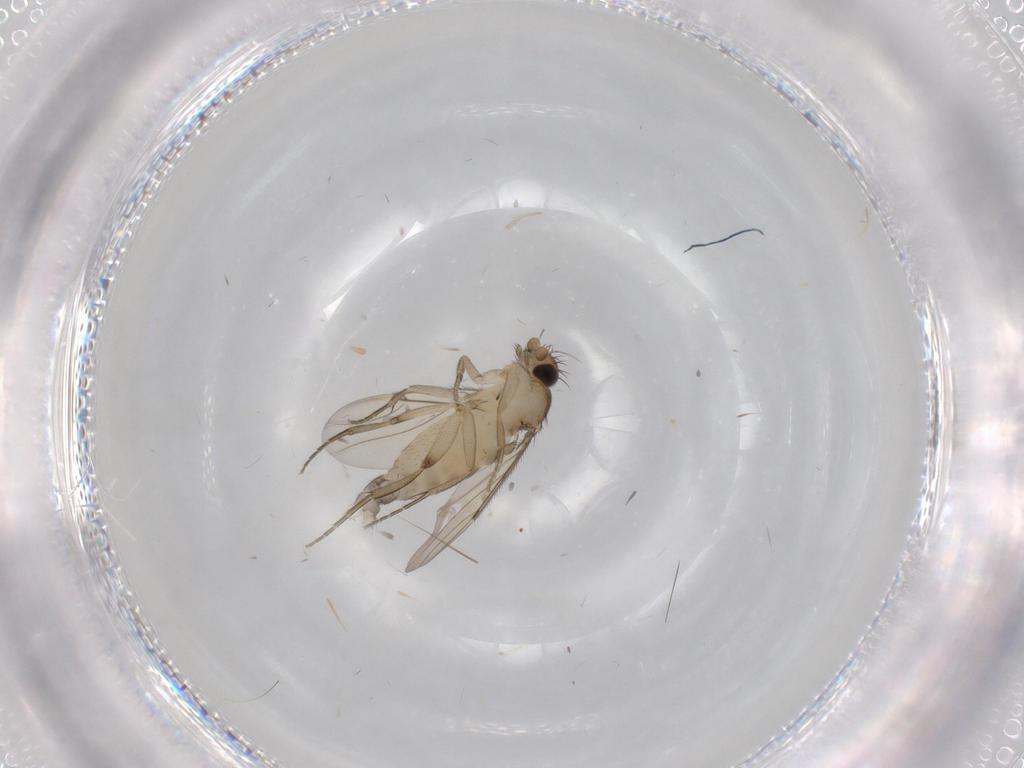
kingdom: Animalia
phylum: Arthropoda
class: Insecta
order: Diptera
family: Phoridae
